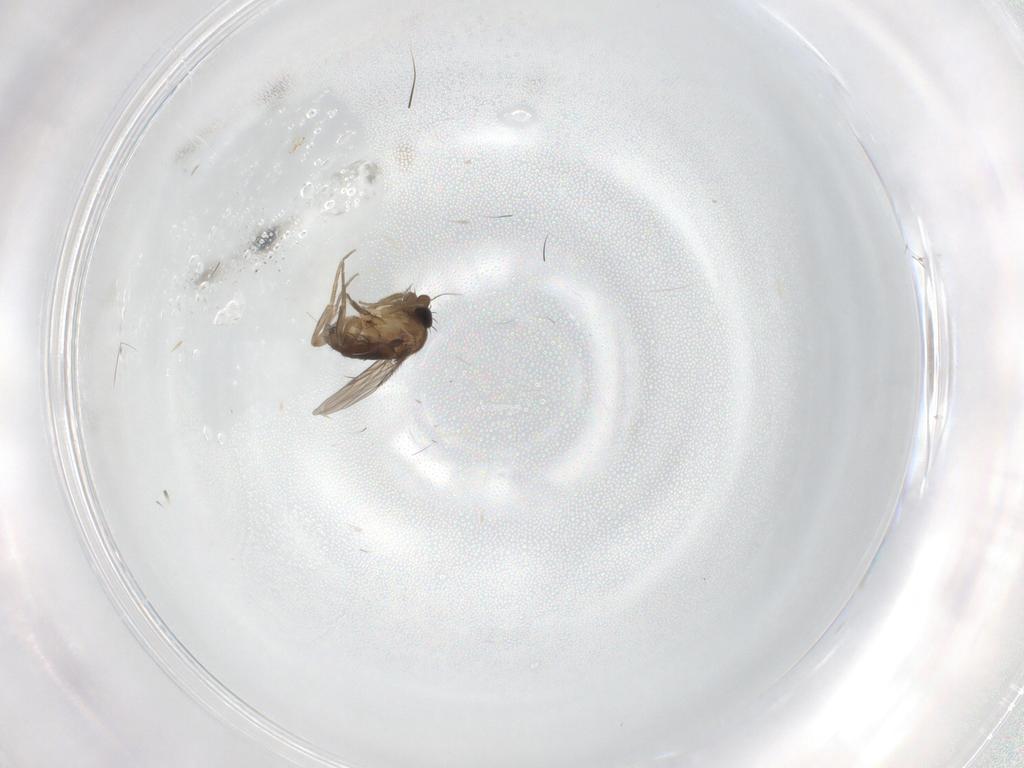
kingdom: Animalia
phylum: Arthropoda
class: Insecta
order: Diptera
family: Phoridae
